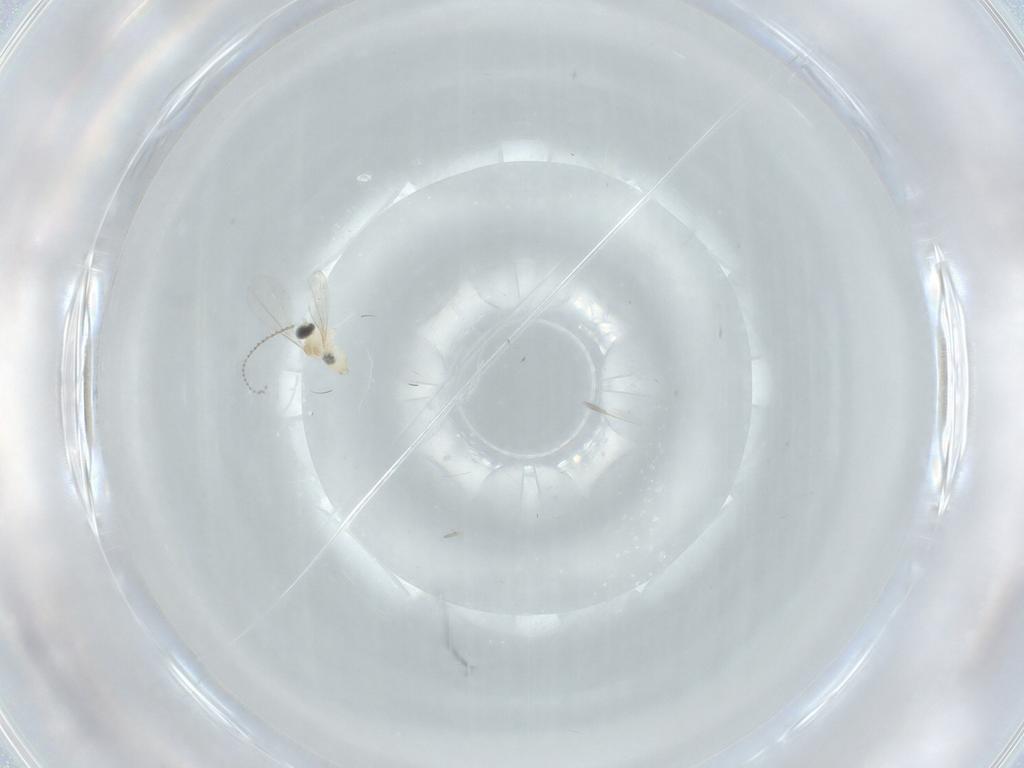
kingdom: Animalia
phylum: Arthropoda
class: Insecta
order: Diptera
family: Cecidomyiidae
